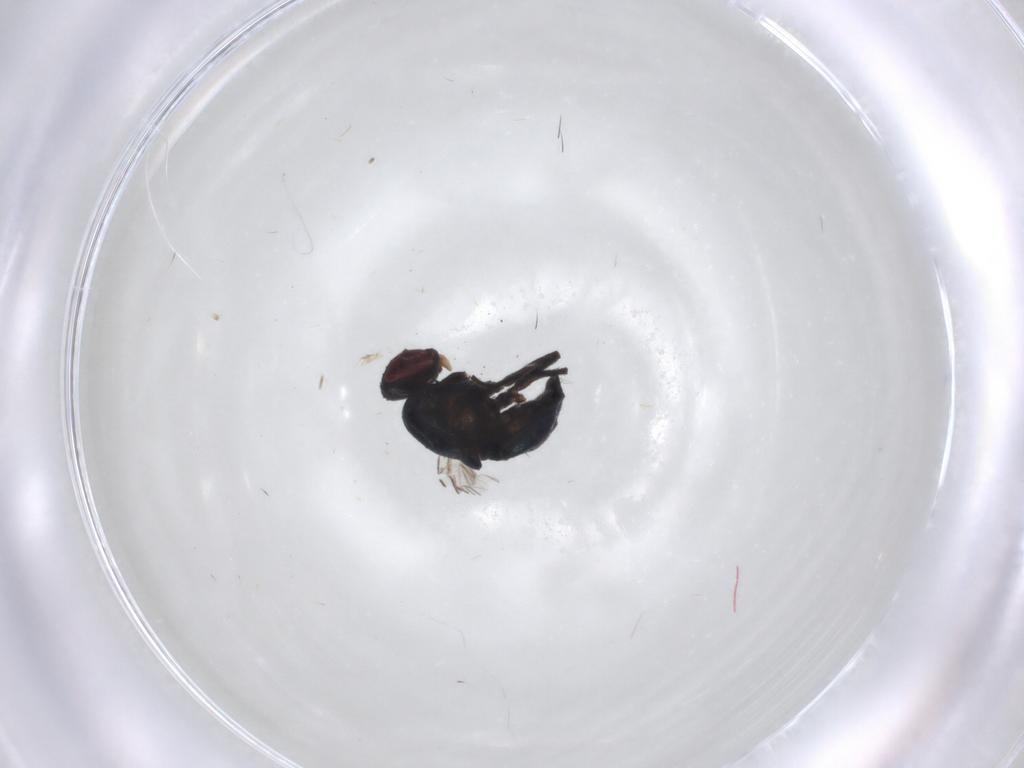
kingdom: Animalia
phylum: Arthropoda
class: Insecta
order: Diptera
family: Agromyzidae
